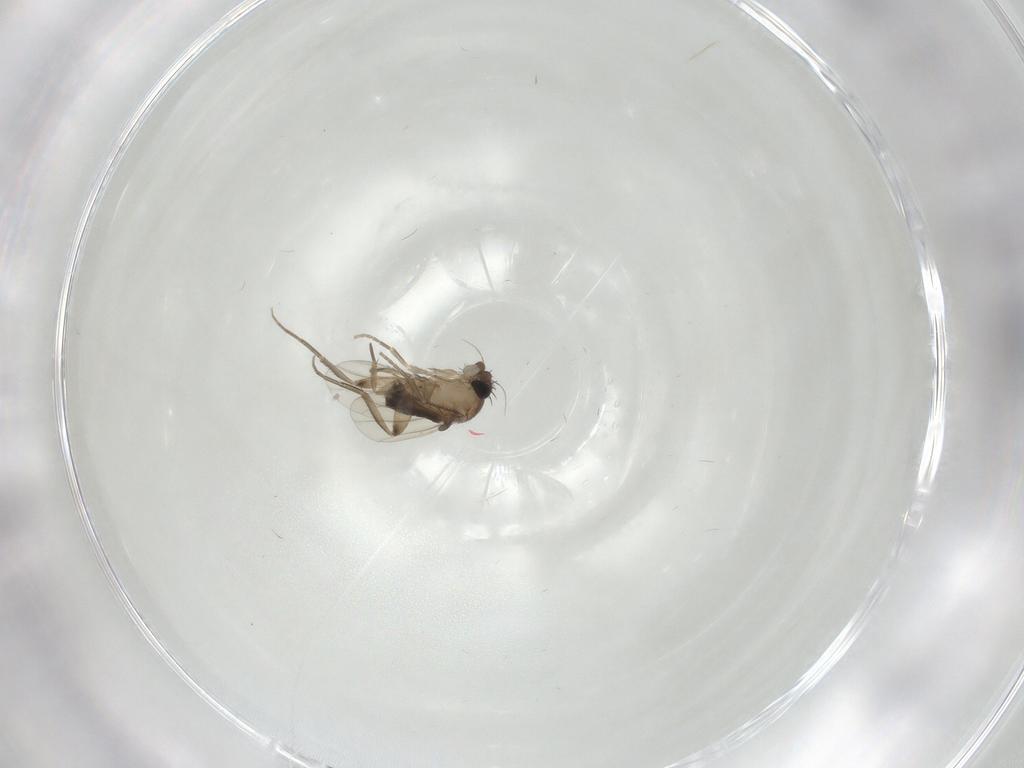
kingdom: Animalia
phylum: Arthropoda
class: Insecta
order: Diptera
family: Phoridae
